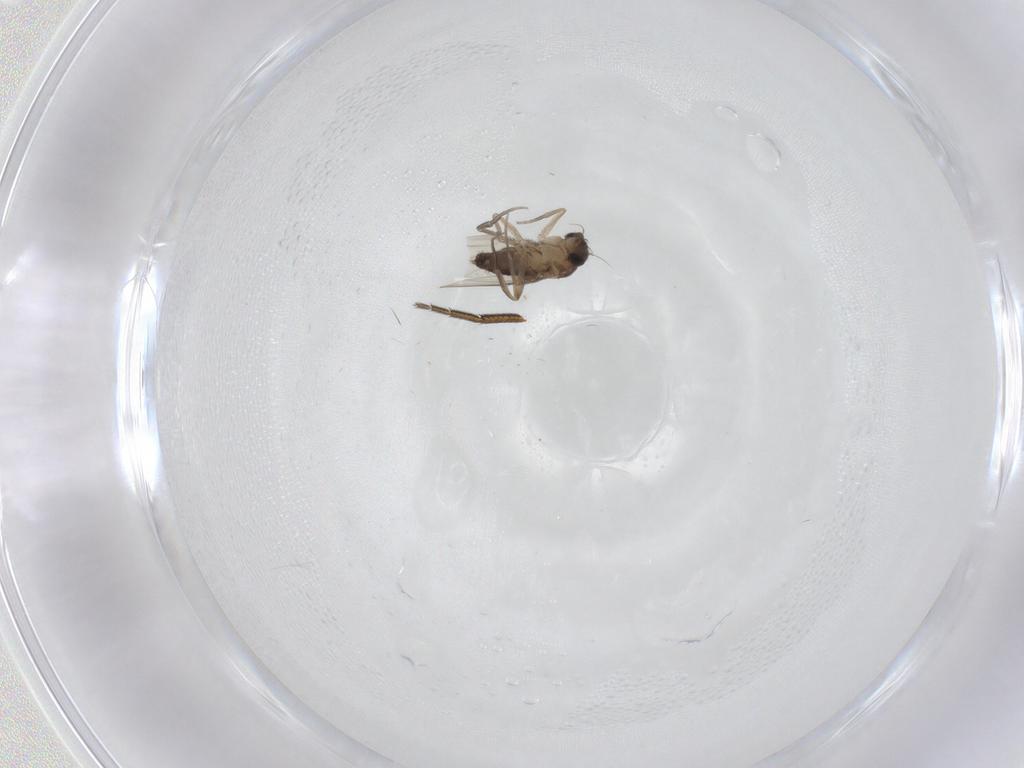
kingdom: Animalia
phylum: Arthropoda
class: Insecta
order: Diptera
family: Phoridae
